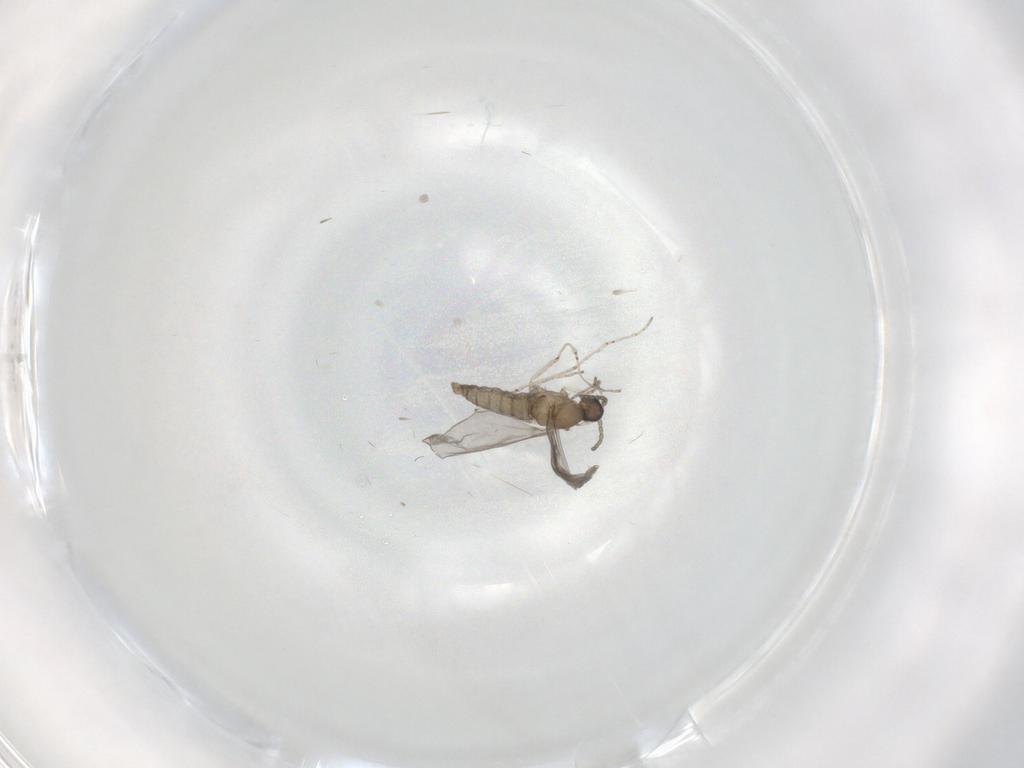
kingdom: Animalia
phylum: Arthropoda
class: Insecta
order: Diptera
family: Cecidomyiidae
